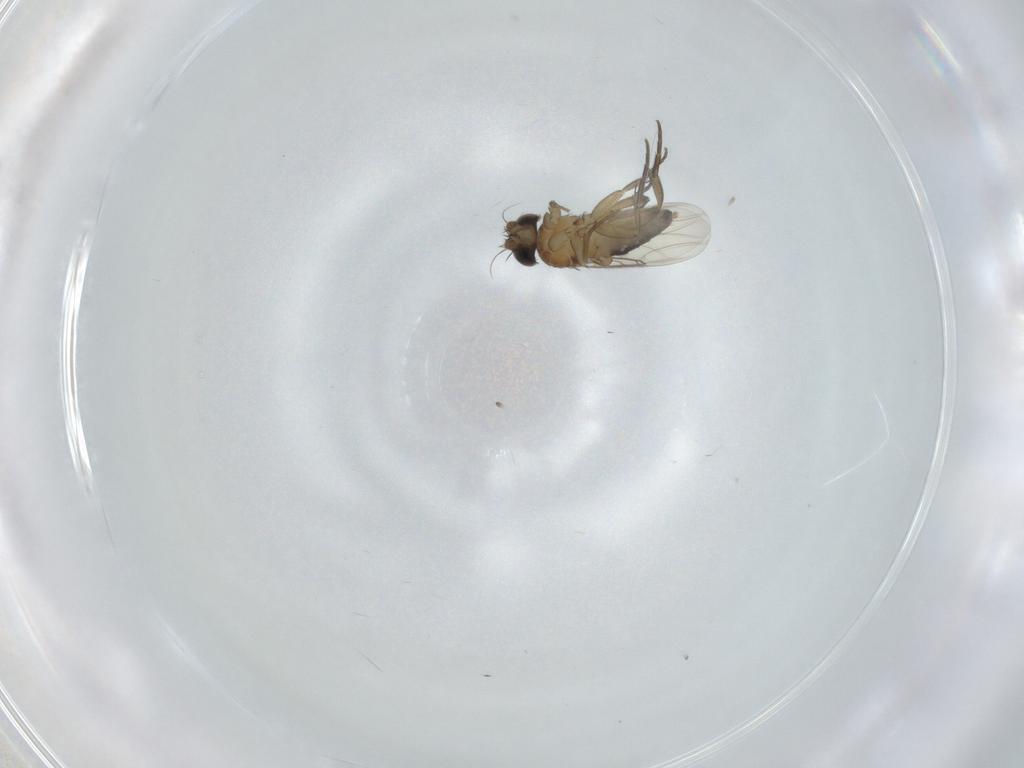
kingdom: Animalia
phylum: Arthropoda
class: Insecta
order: Diptera
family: Phoridae
